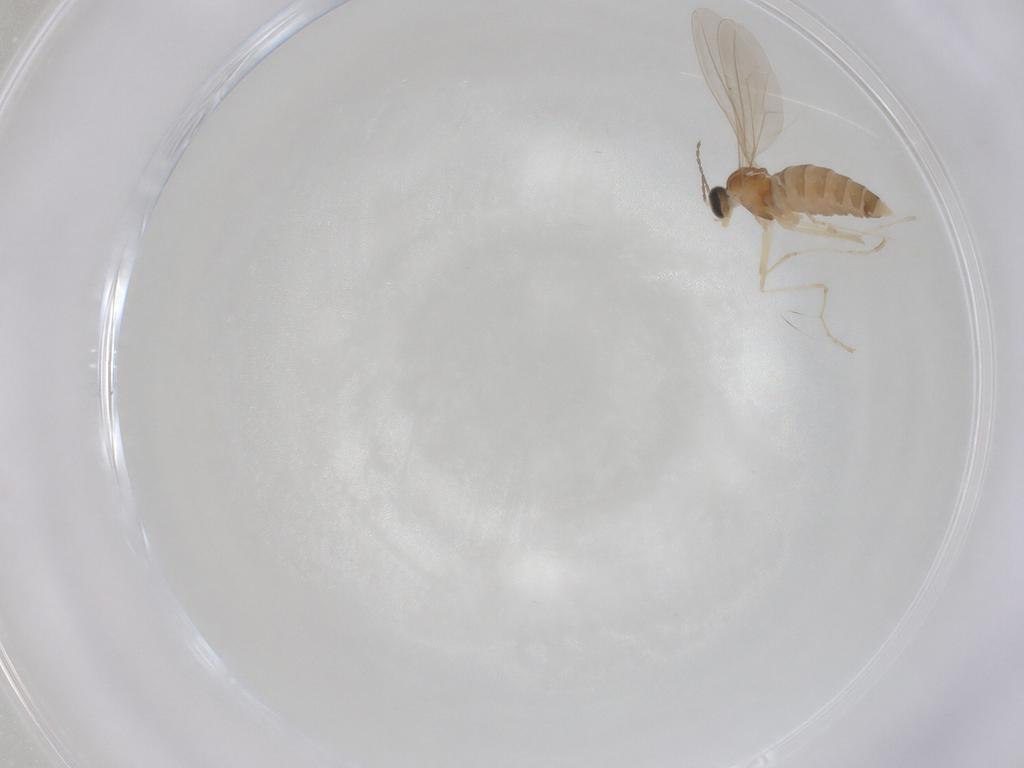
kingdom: Animalia
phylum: Arthropoda
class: Insecta
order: Diptera
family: Cecidomyiidae
